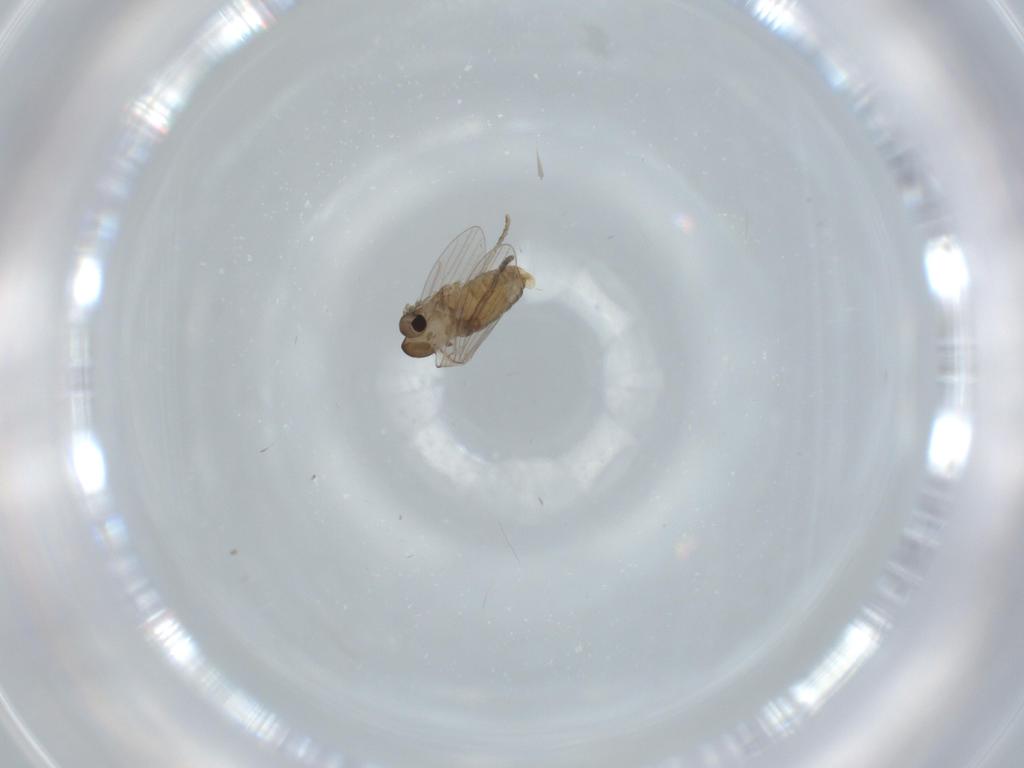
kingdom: Animalia
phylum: Arthropoda
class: Insecta
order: Diptera
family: Psychodidae
